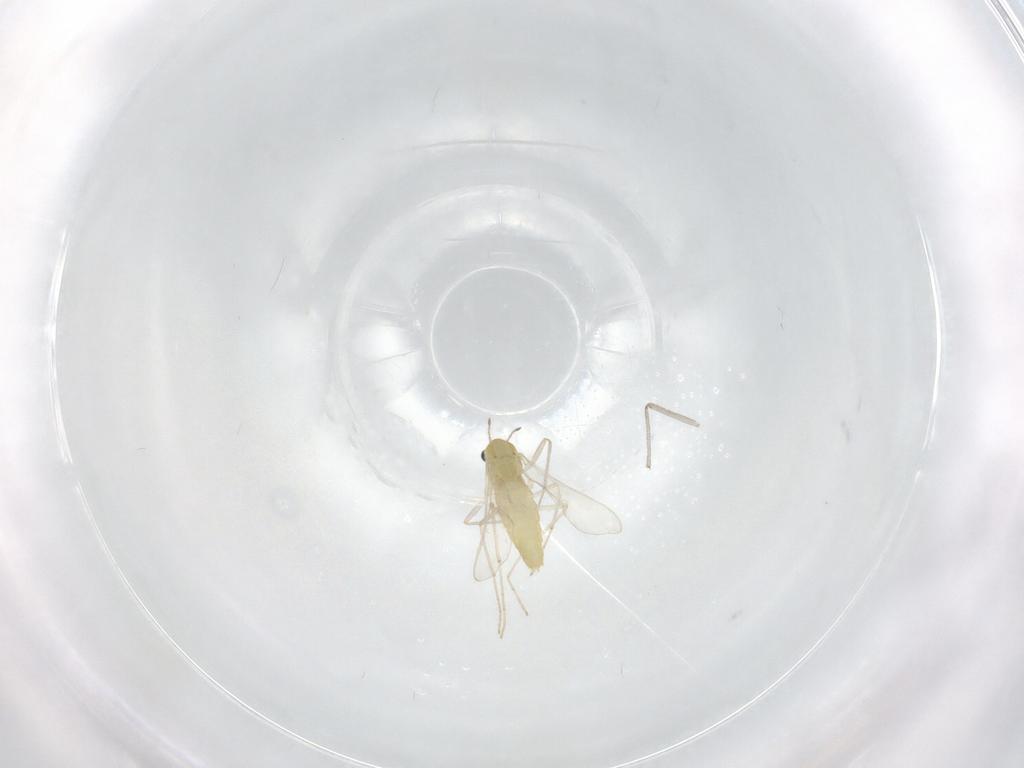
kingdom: Animalia
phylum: Arthropoda
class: Insecta
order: Diptera
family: Chironomidae
